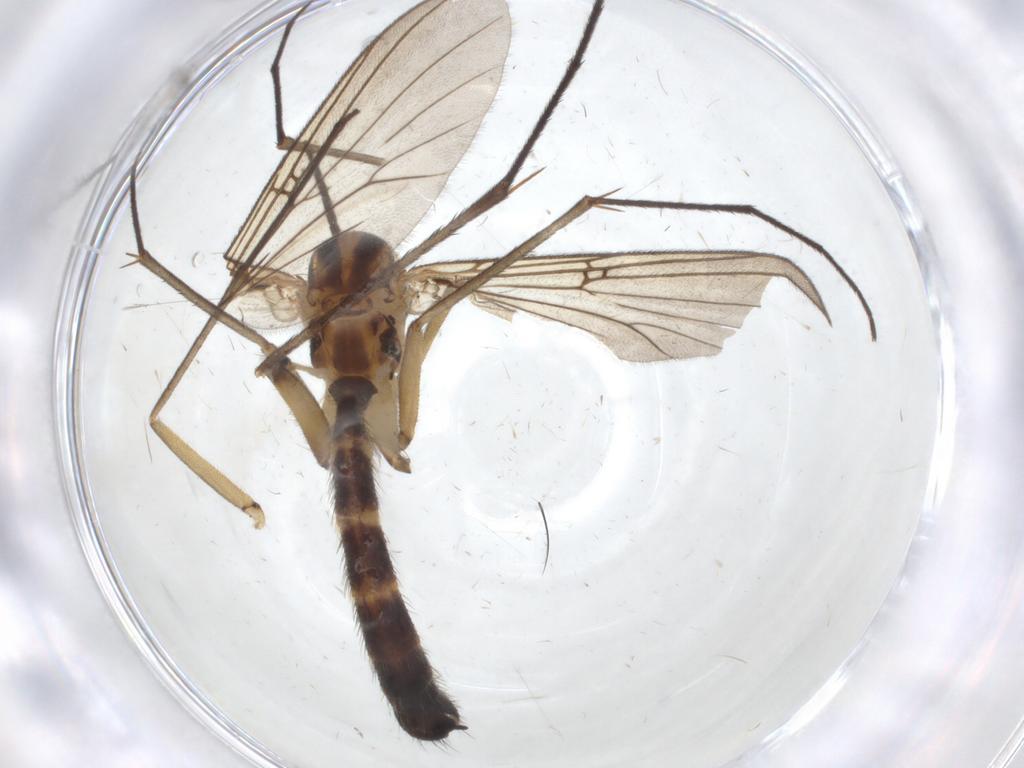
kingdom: Animalia
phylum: Arthropoda
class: Insecta
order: Diptera
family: Mycetophilidae
